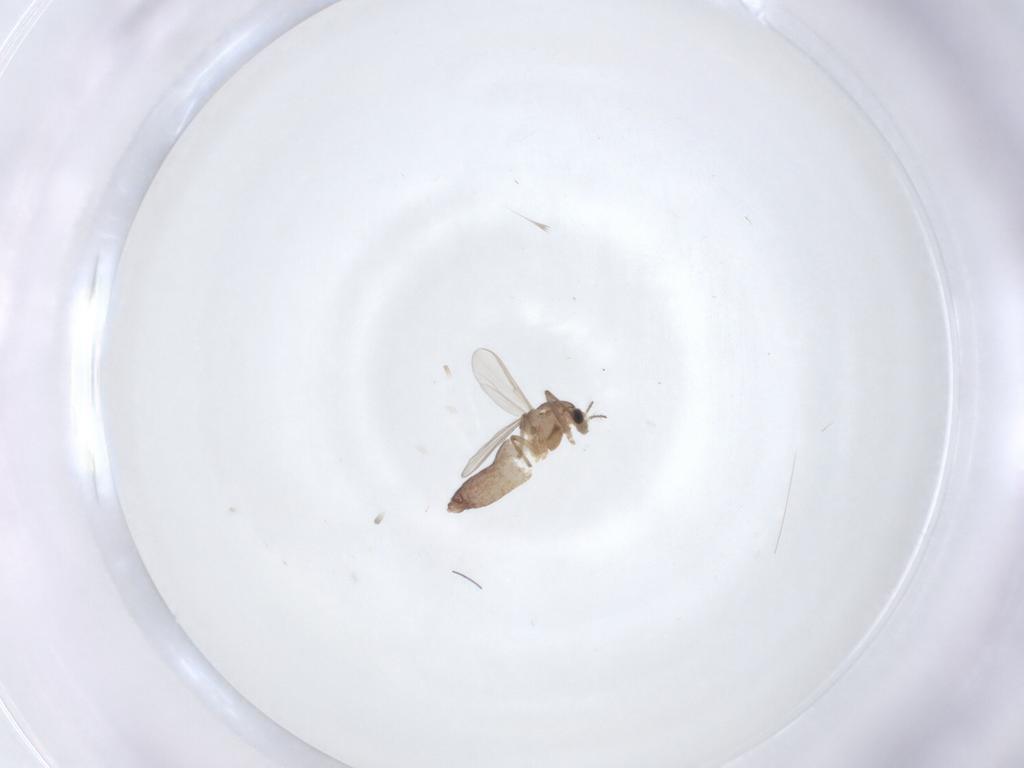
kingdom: Animalia
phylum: Arthropoda
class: Insecta
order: Diptera
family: Chironomidae
